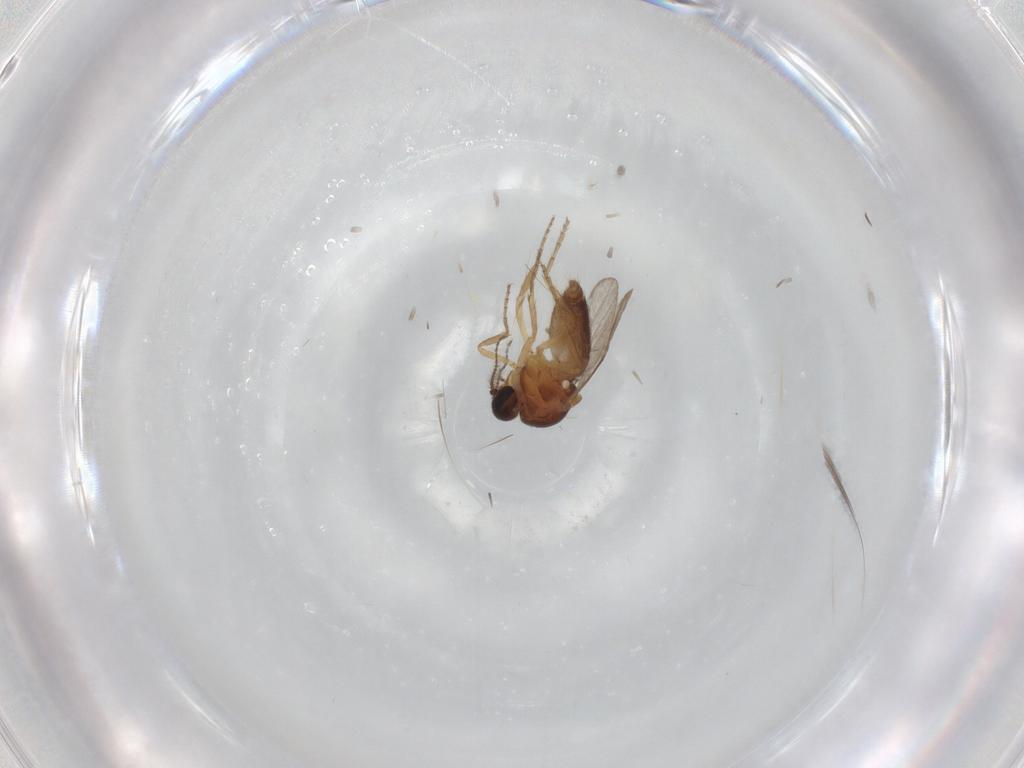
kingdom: Animalia
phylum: Arthropoda
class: Insecta
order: Diptera
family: Ceratopogonidae
